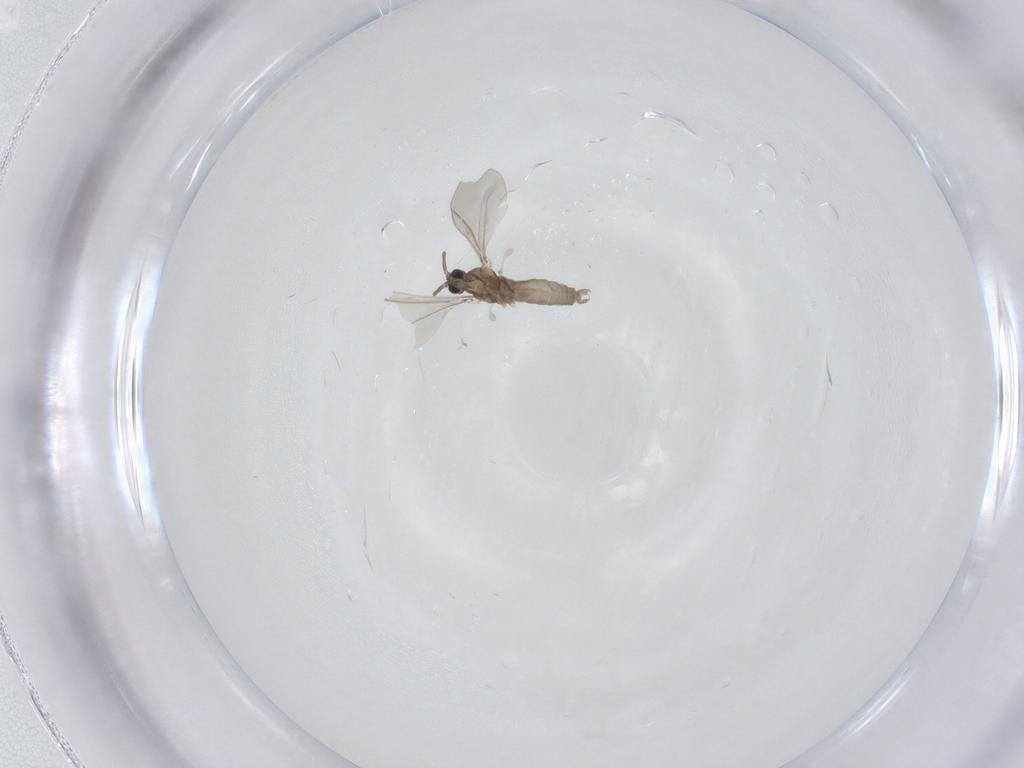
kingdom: Animalia
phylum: Arthropoda
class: Insecta
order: Diptera
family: Cecidomyiidae
